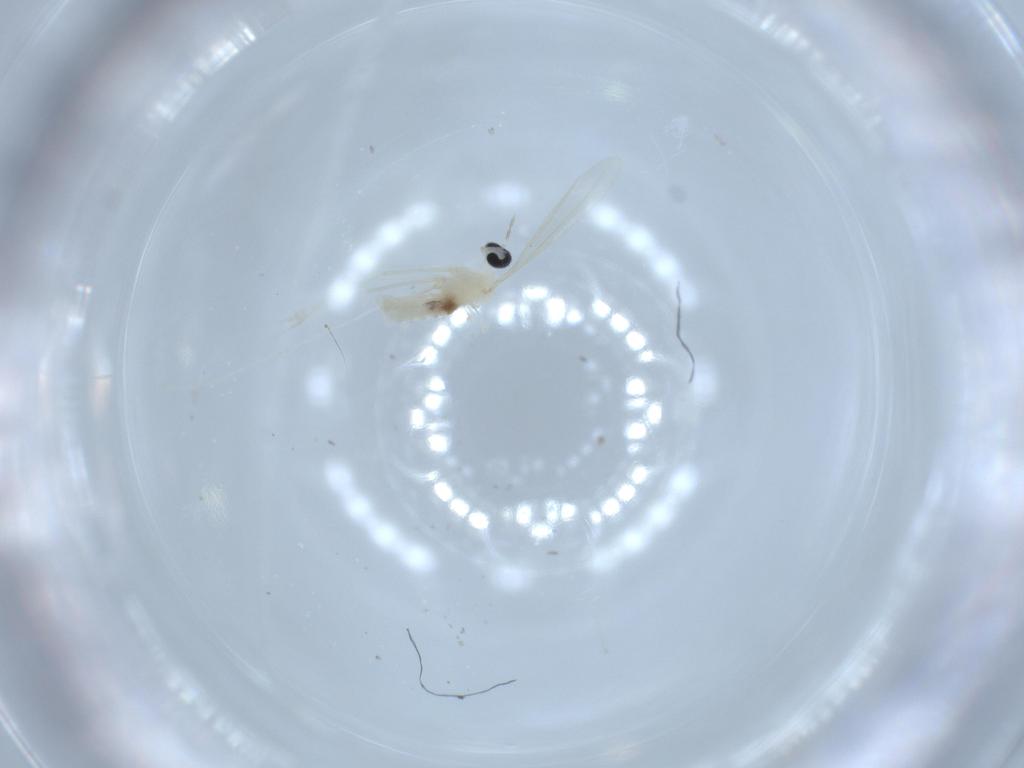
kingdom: Animalia
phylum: Arthropoda
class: Insecta
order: Diptera
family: Cecidomyiidae
